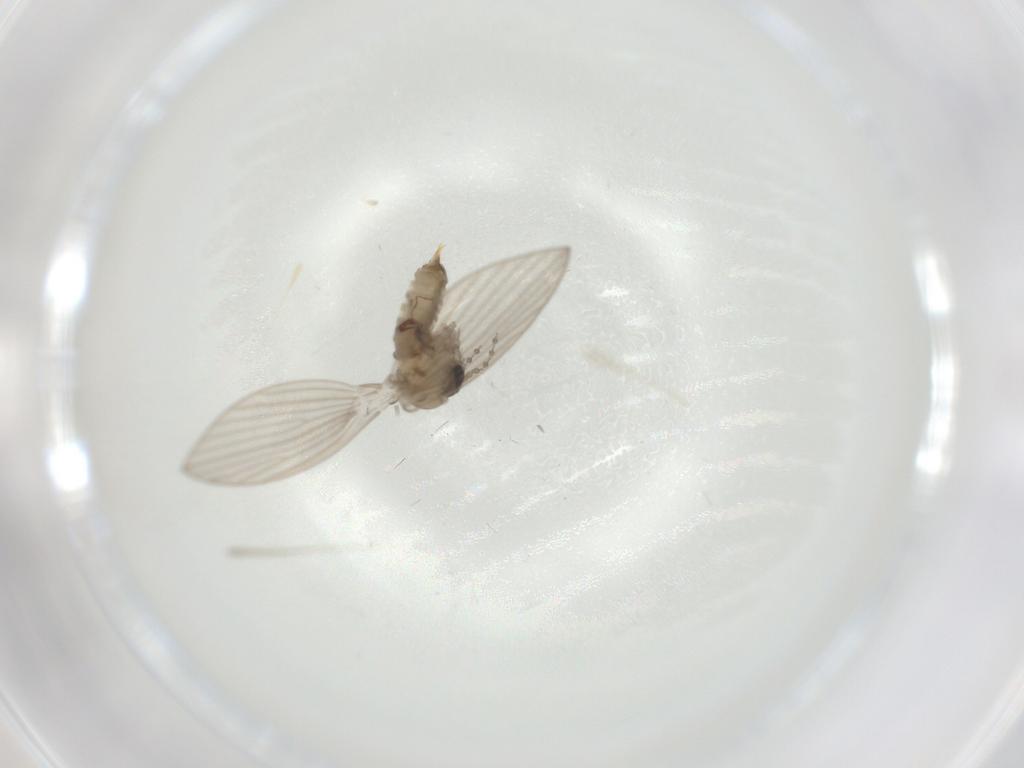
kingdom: Animalia
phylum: Arthropoda
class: Insecta
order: Diptera
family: Psychodidae
